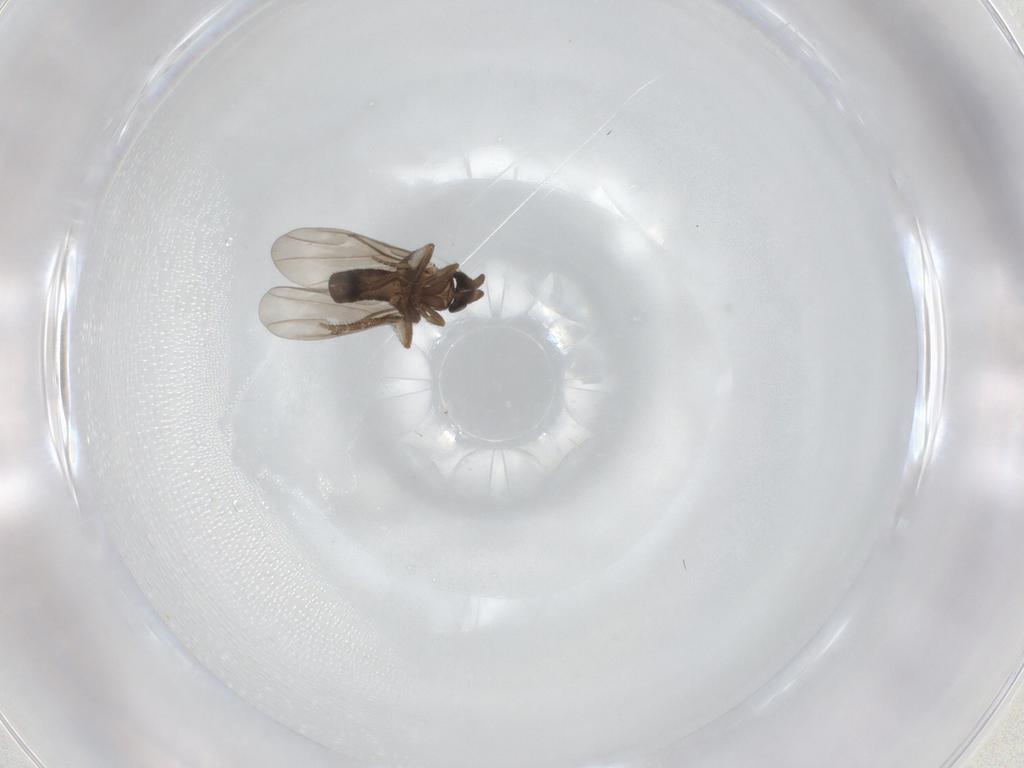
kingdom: Animalia
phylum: Arthropoda
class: Insecta
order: Diptera
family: Phoridae
